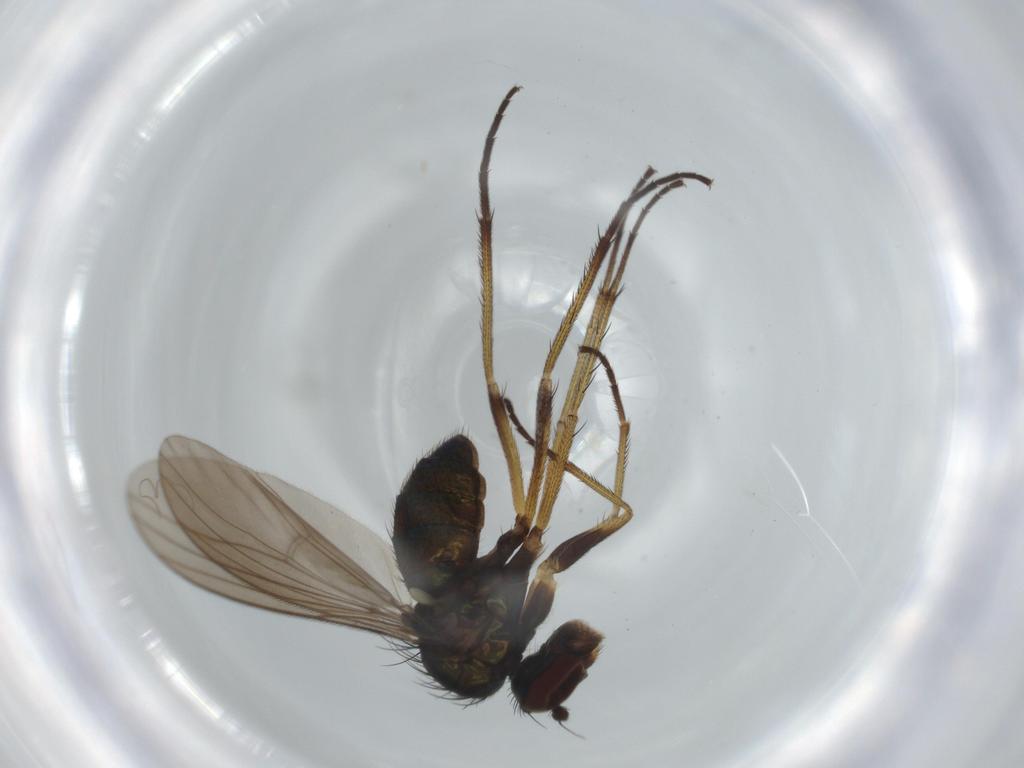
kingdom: Animalia
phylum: Arthropoda
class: Insecta
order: Diptera
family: Dolichopodidae
